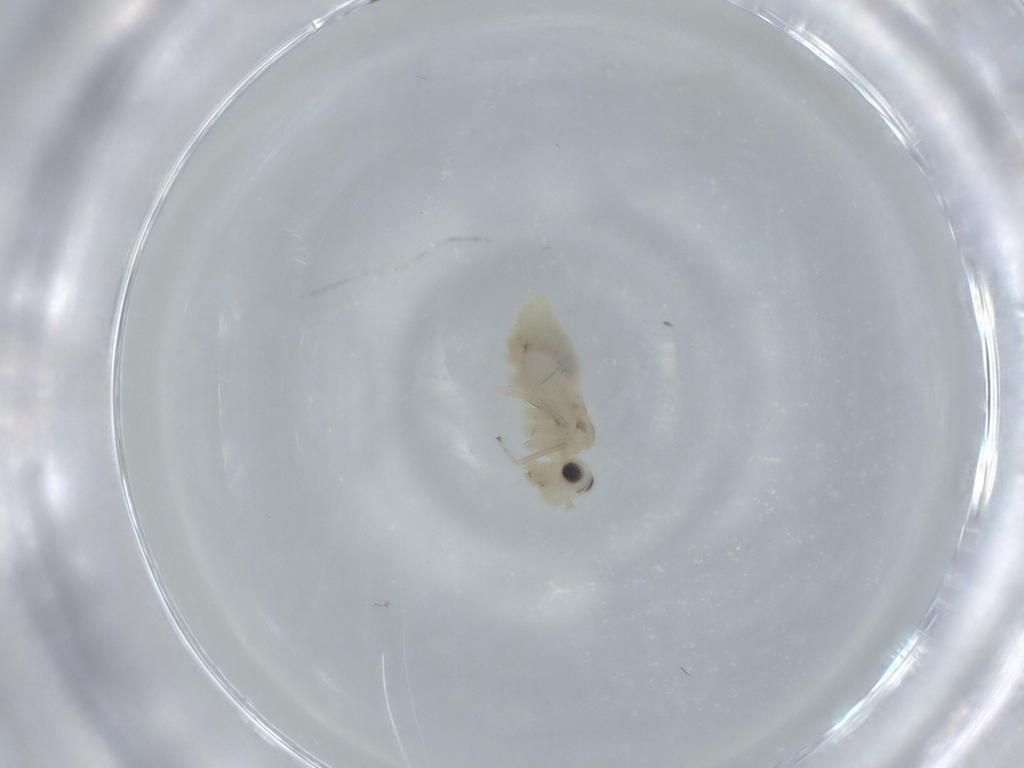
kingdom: Animalia
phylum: Arthropoda
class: Insecta
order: Psocodea
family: Caeciliusidae
